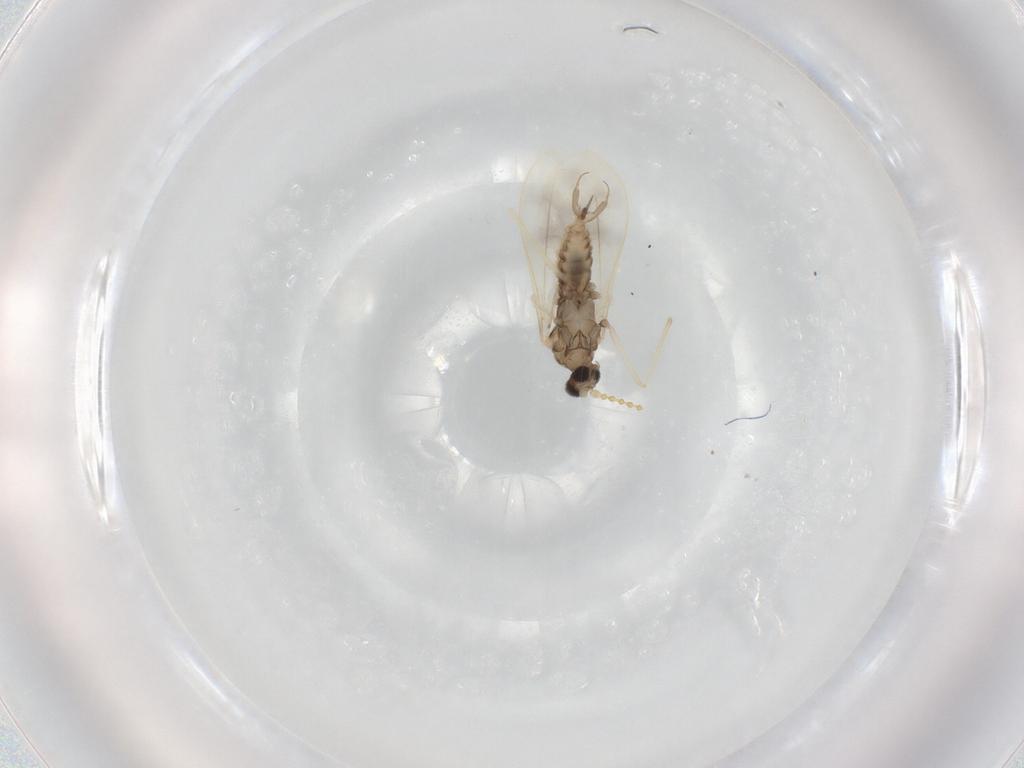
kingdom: Animalia
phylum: Arthropoda
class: Insecta
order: Diptera
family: Cecidomyiidae
